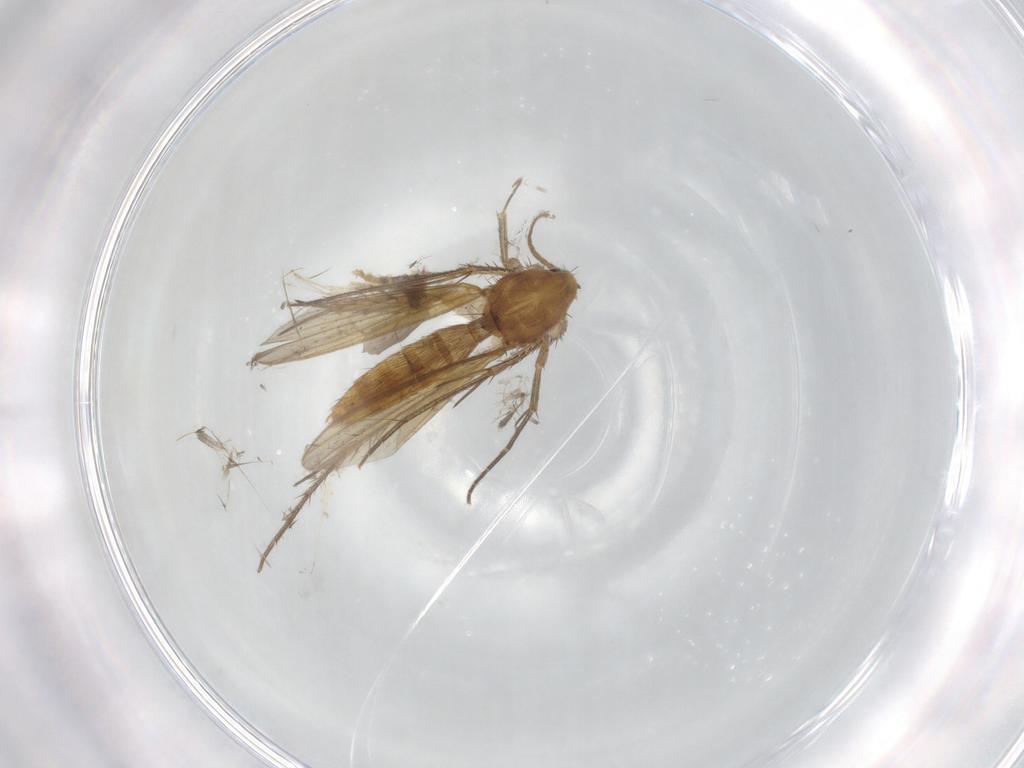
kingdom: Animalia
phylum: Arthropoda
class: Insecta
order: Diptera
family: Mycetophilidae
